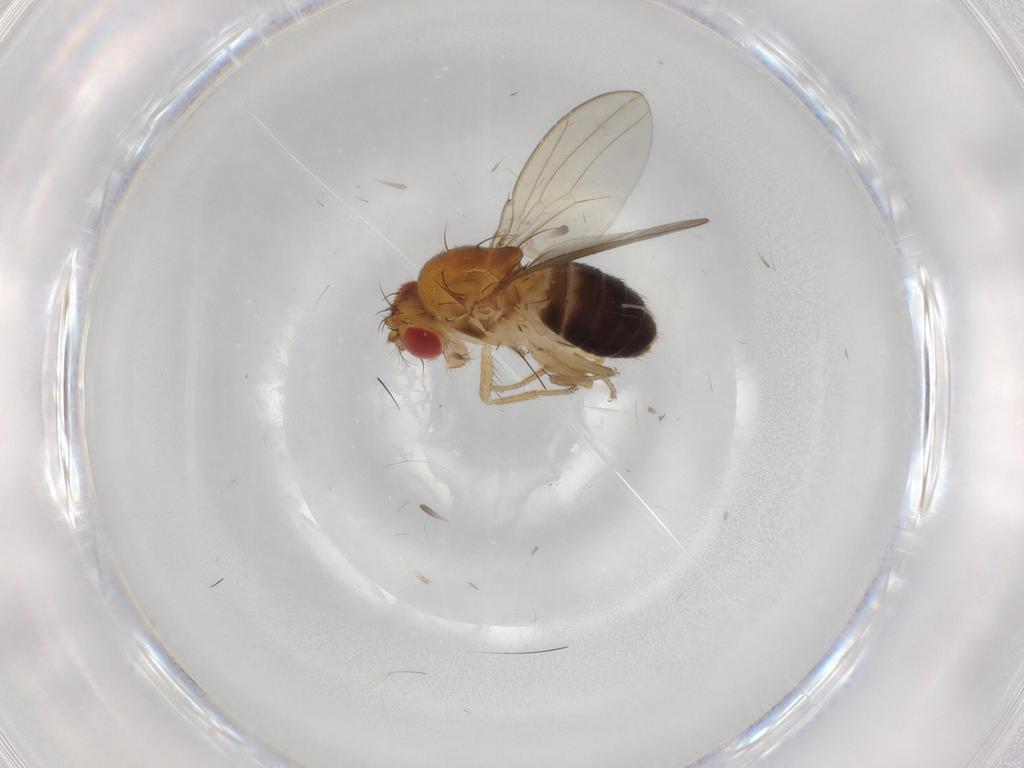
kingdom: Animalia
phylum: Arthropoda
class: Insecta
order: Diptera
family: Drosophilidae
